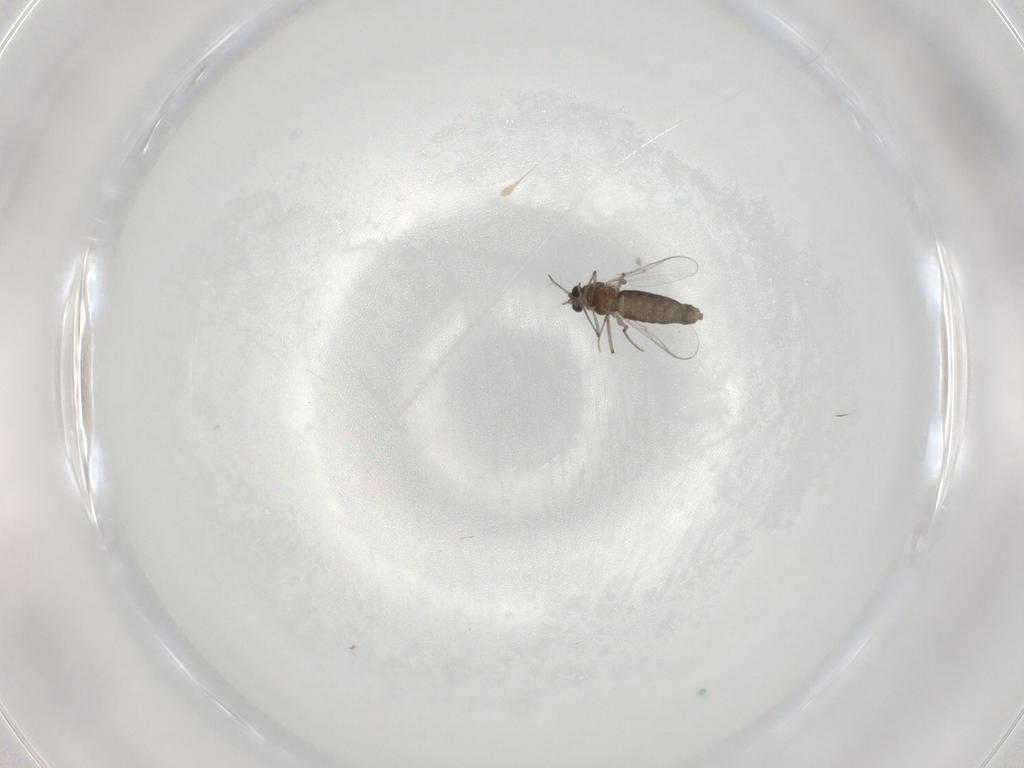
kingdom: Animalia
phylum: Arthropoda
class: Insecta
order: Diptera
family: Chironomidae
